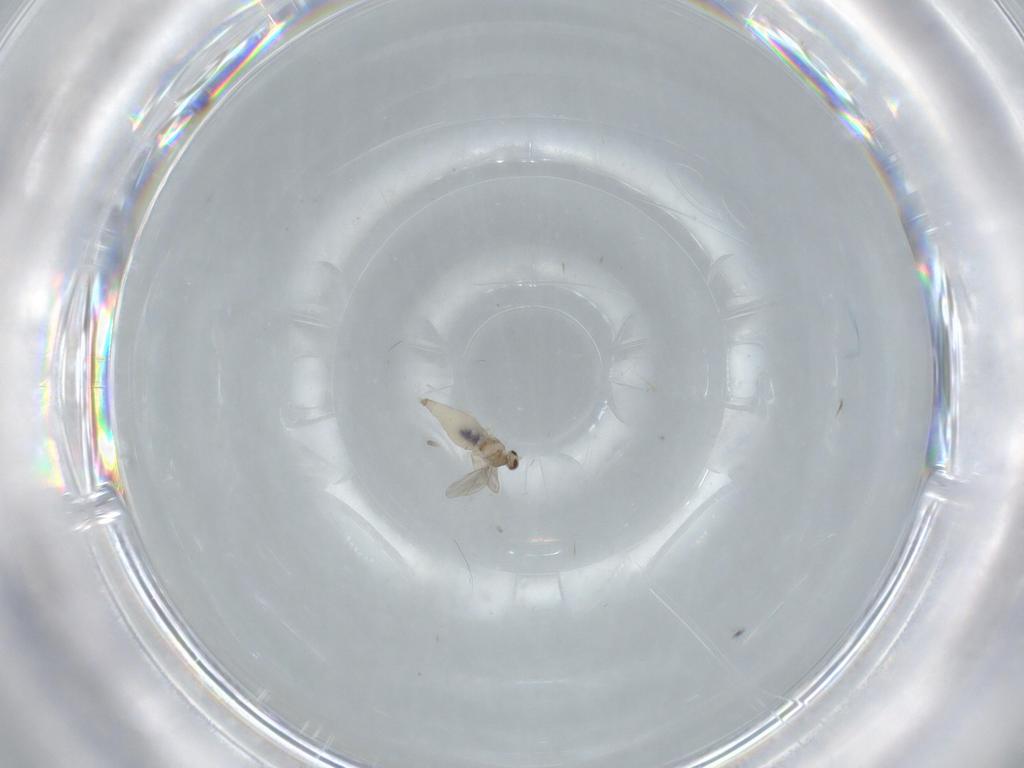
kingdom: Animalia
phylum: Arthropoda
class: Insecta
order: Diptera
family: Cecidomyiidae
